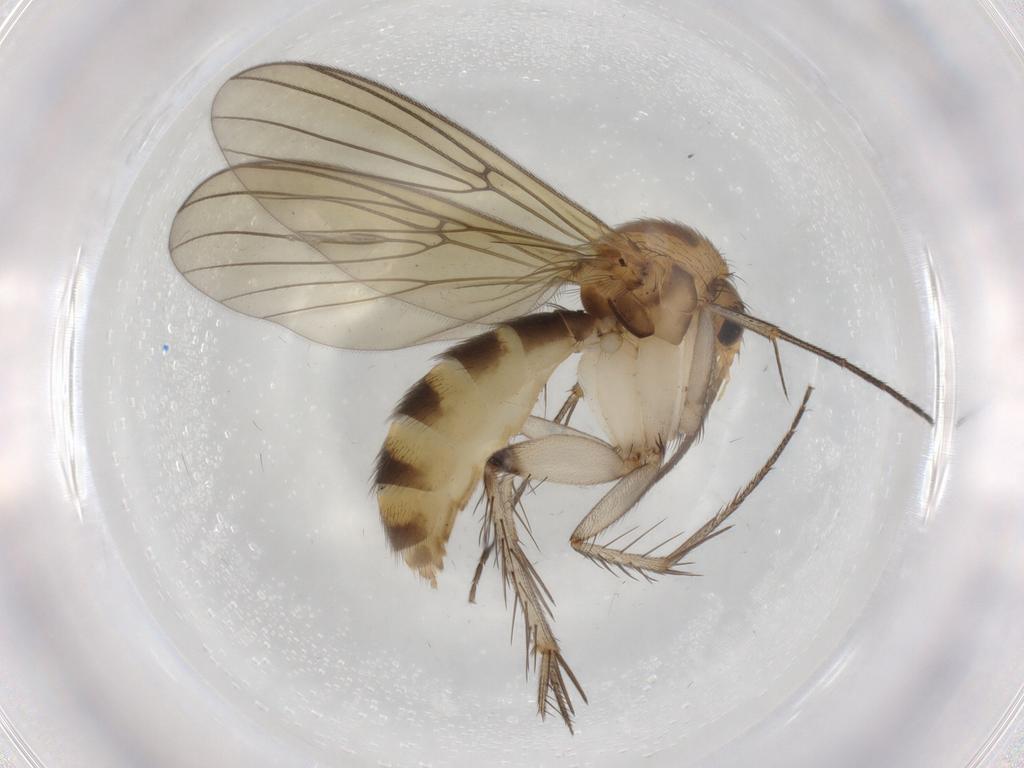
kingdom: Animalia
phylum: Arthropoda
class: Insecta
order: Diptera
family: Mycetophilidae
